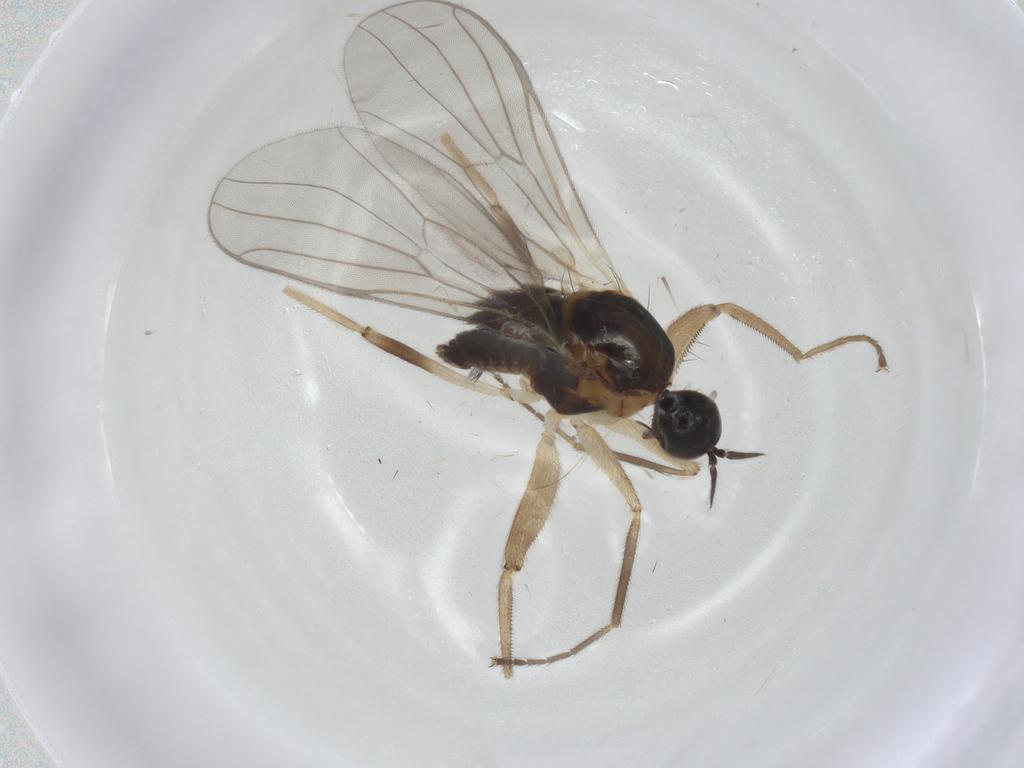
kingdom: Animalia
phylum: Arthropoda
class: Insecta
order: Diptera
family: Hybotidae
